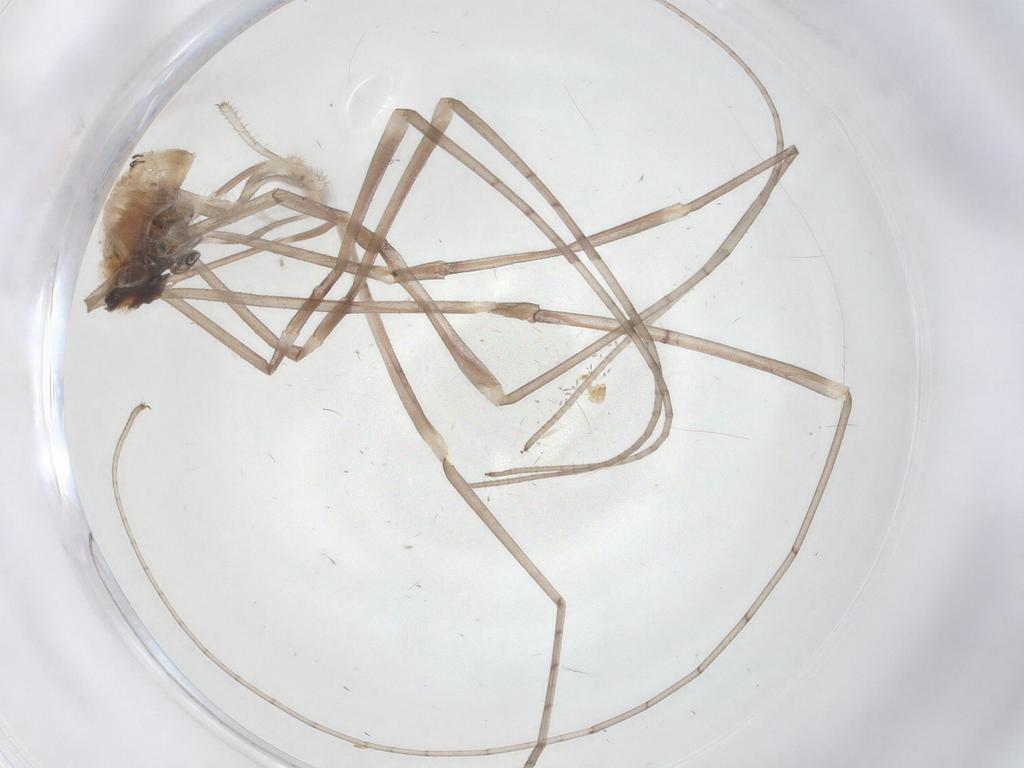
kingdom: Animalia
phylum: Arthropoda
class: Arachnida
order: Opiliones
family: Sclerosomatidae
